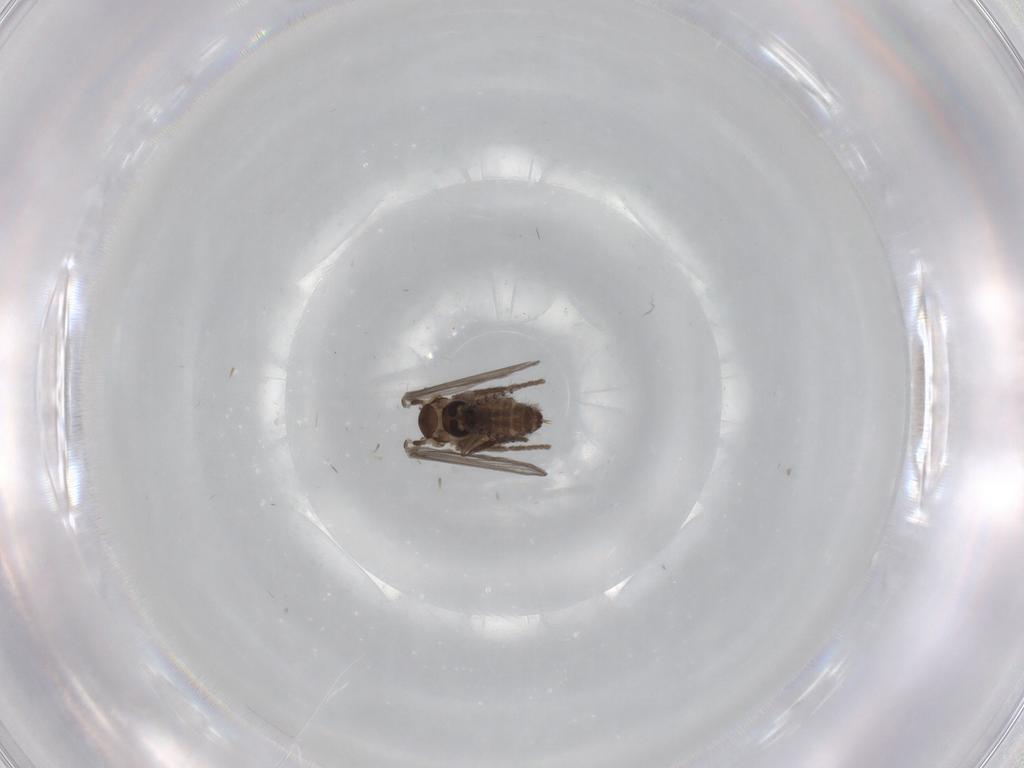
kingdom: Animalia
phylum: Arthropoda
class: Insecta
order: Diptera
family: Psychodidae
